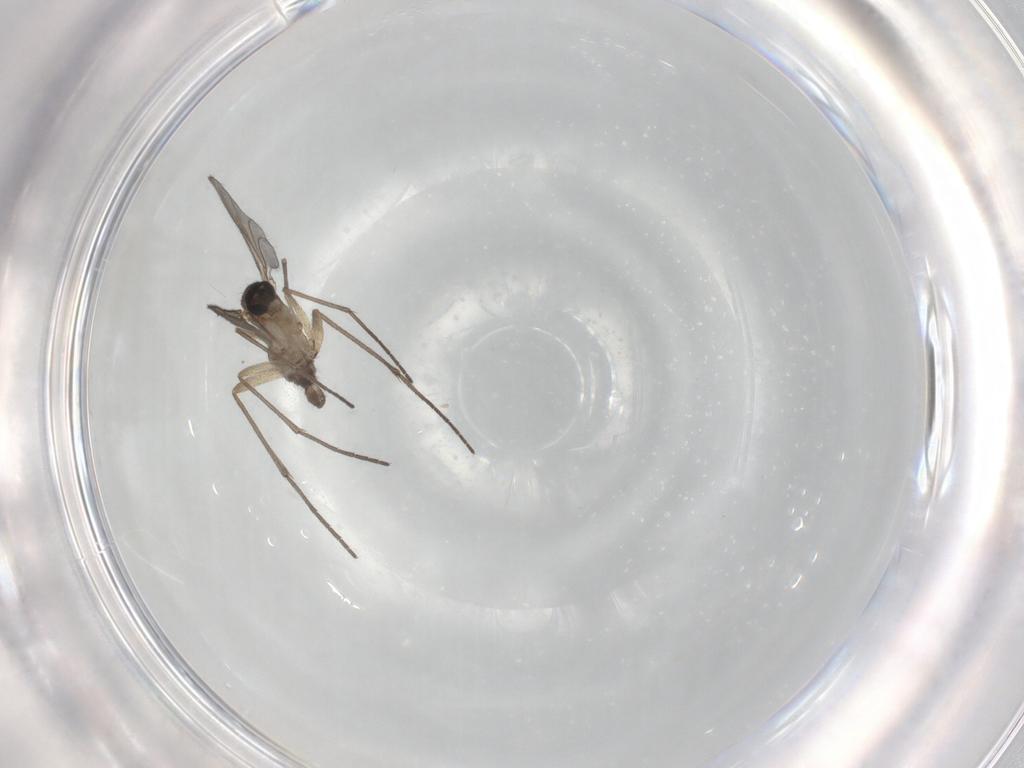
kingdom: Animalia
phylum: Arthropoda
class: Insecta
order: Diptera
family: Sciaridae
